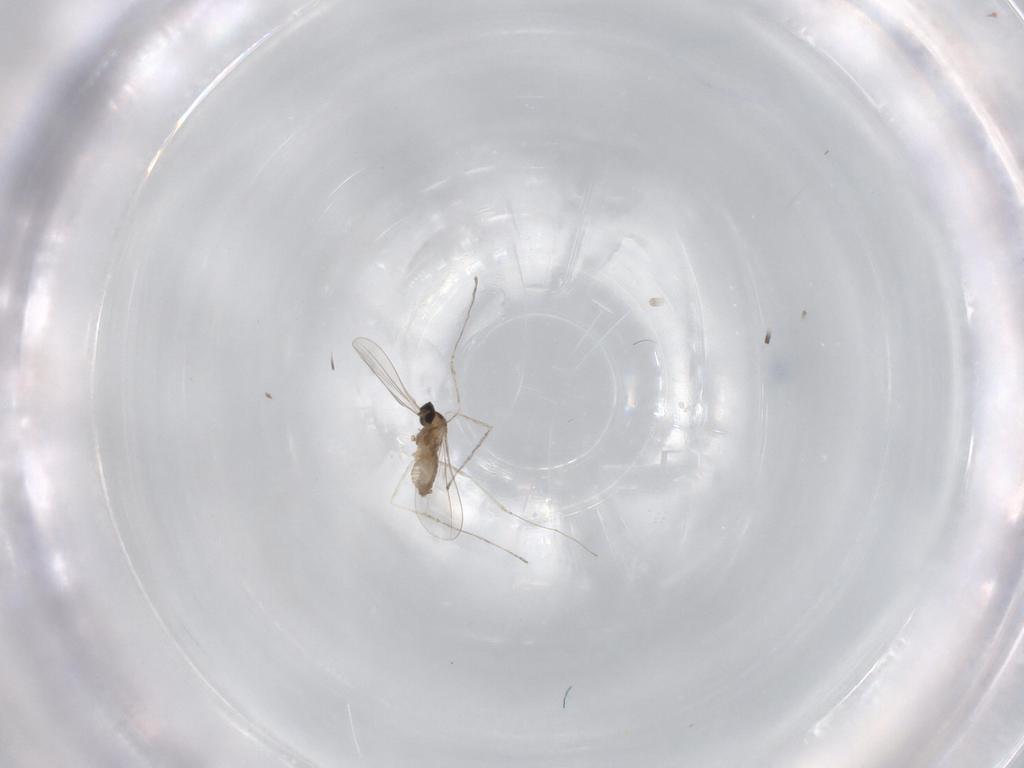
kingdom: Animalia
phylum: Arthropoda
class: Insecta
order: Diptera
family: Cecidomyiidae
